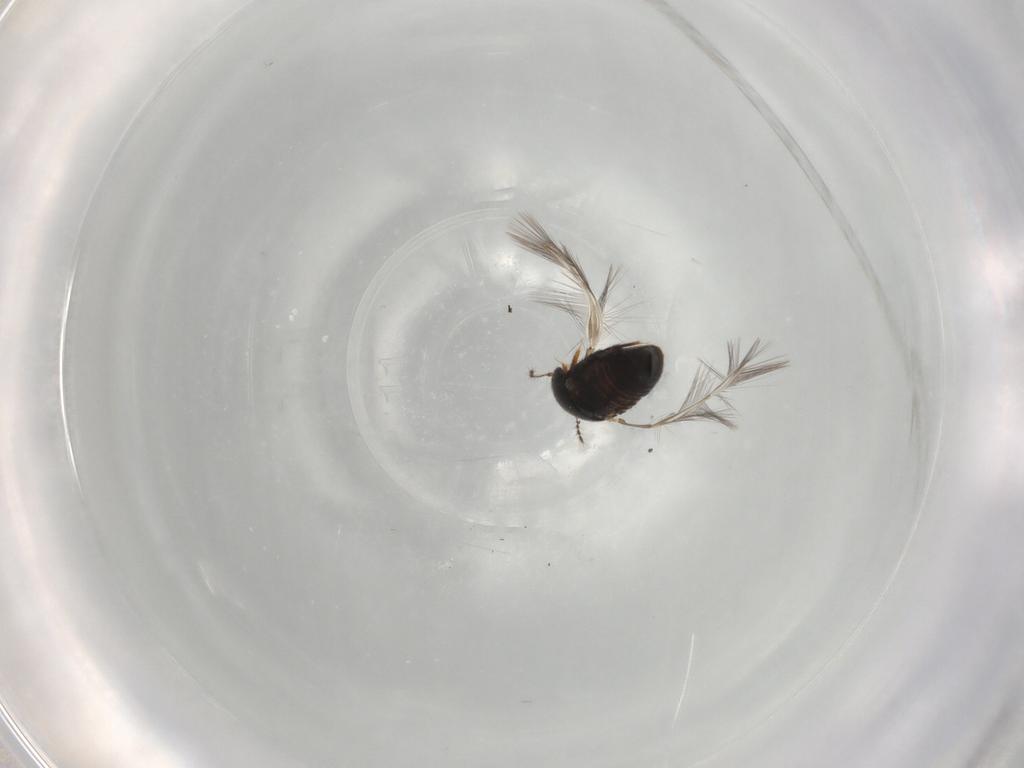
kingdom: Animalia
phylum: Arthropoda
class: Insecta
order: Coleoptera
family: Ptiliidae
